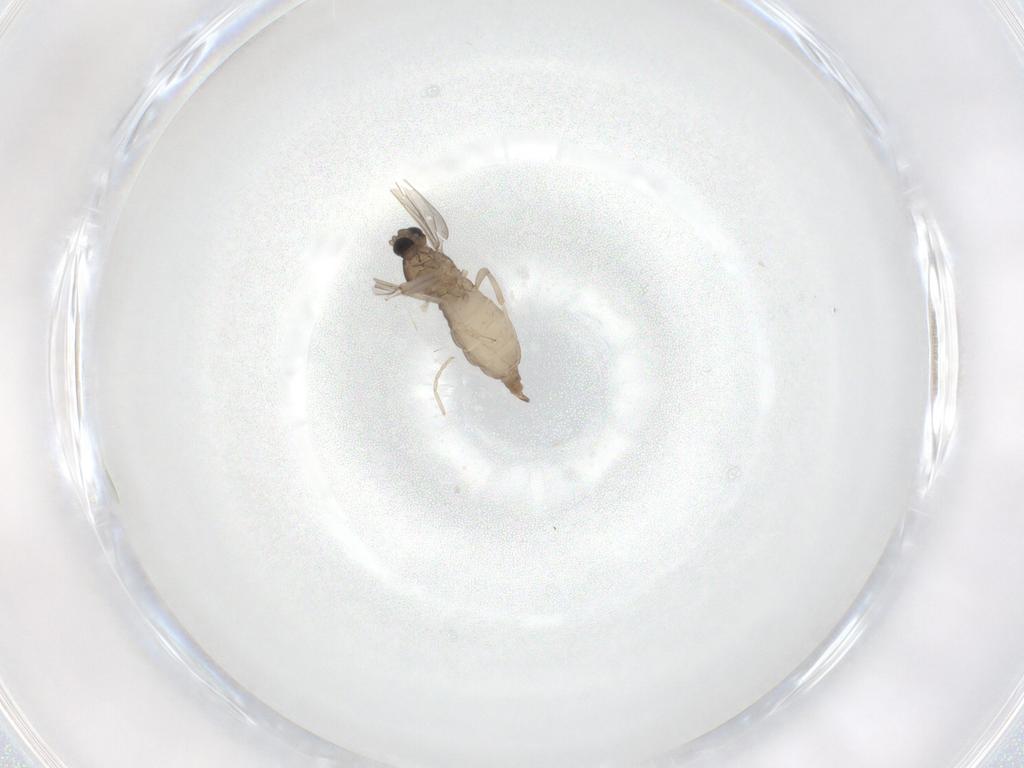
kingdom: Animalia
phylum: Arthropoda
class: Insecta
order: Diptera
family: Cecidomyiidae
